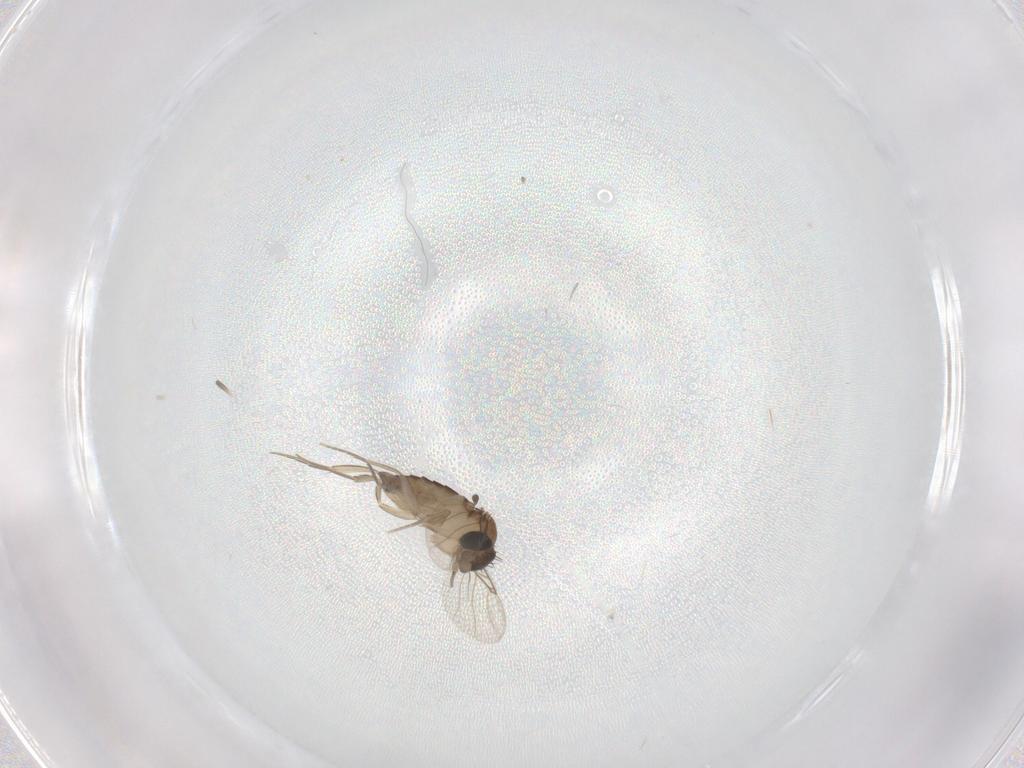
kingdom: Animalia
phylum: Arthropoda
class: Insecta
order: Diptera
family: Phoridae
